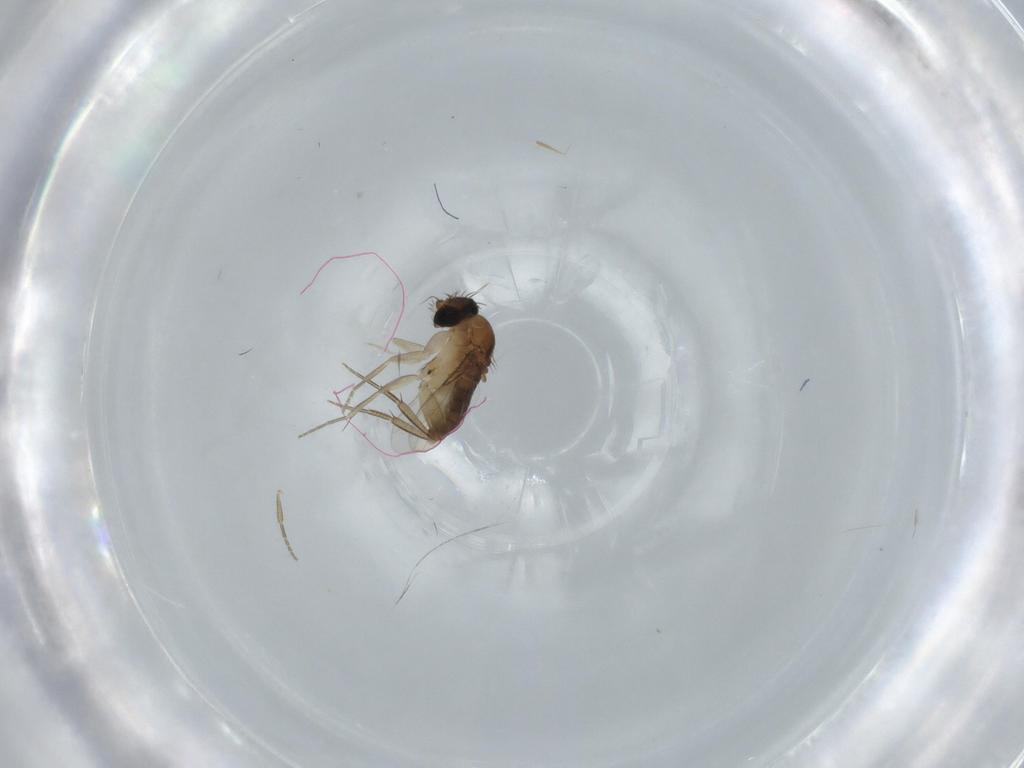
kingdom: Animalia
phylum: Arthropoda
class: Insecta
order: Diptera
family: Phoridae
